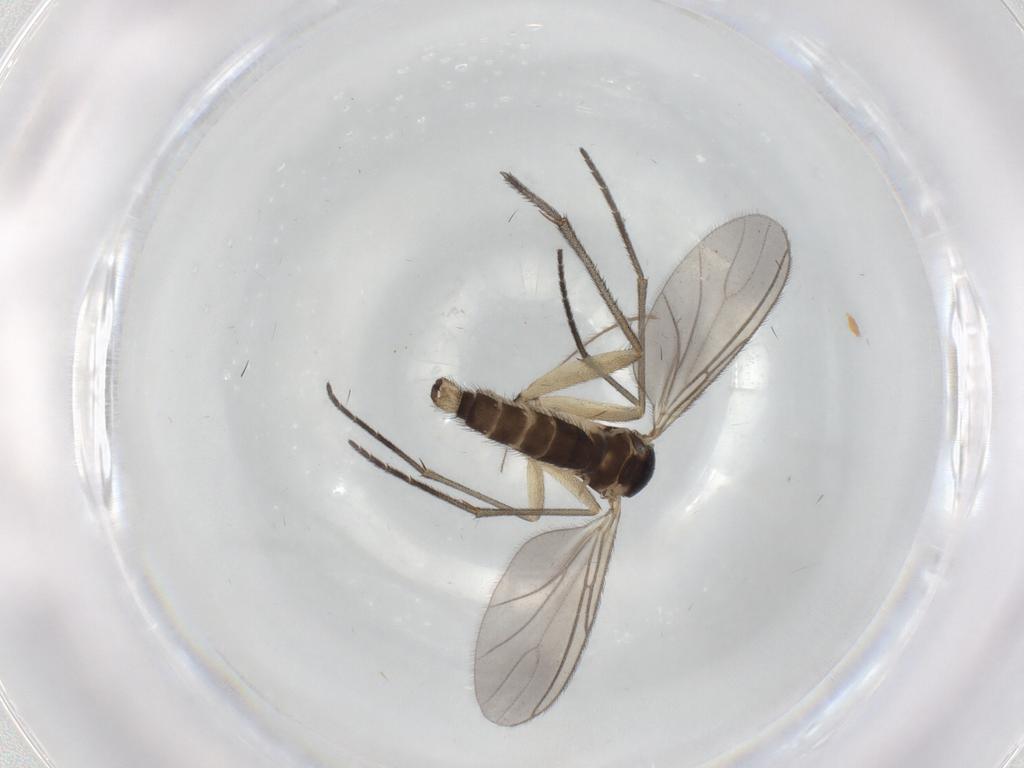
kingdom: Animalia
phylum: Arthropoda
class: Insecta
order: Diptera
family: Sciaridae
